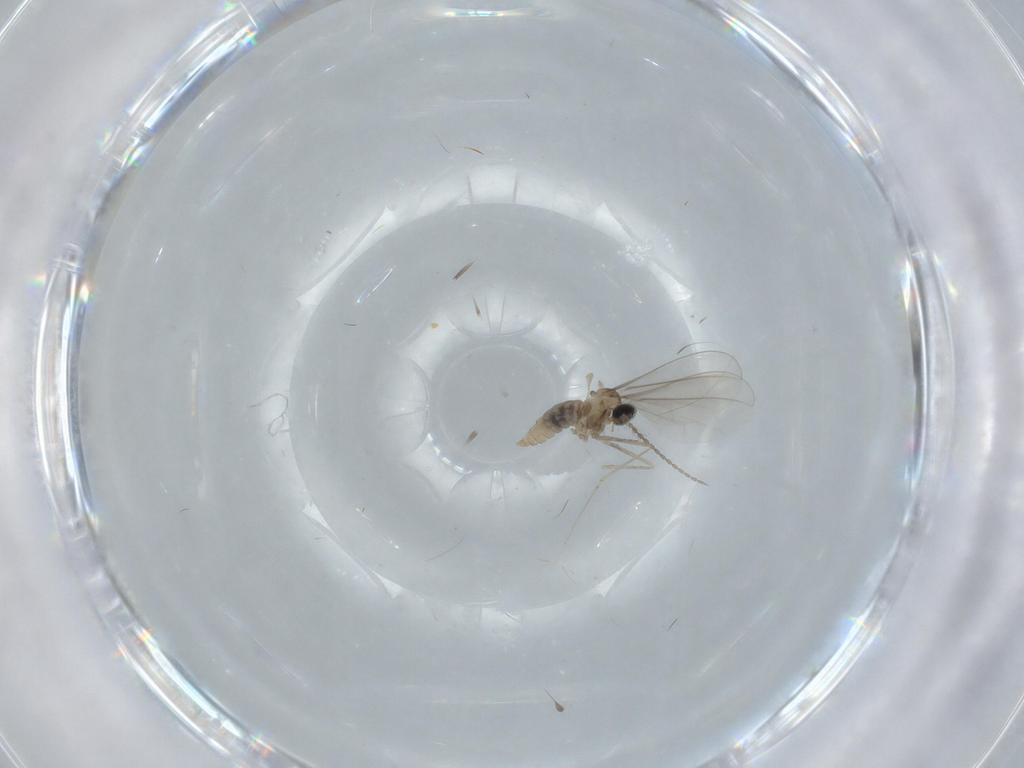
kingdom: Animalia
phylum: Arthropoda
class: Insecta
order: Diptera
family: Cecidomyiidae
